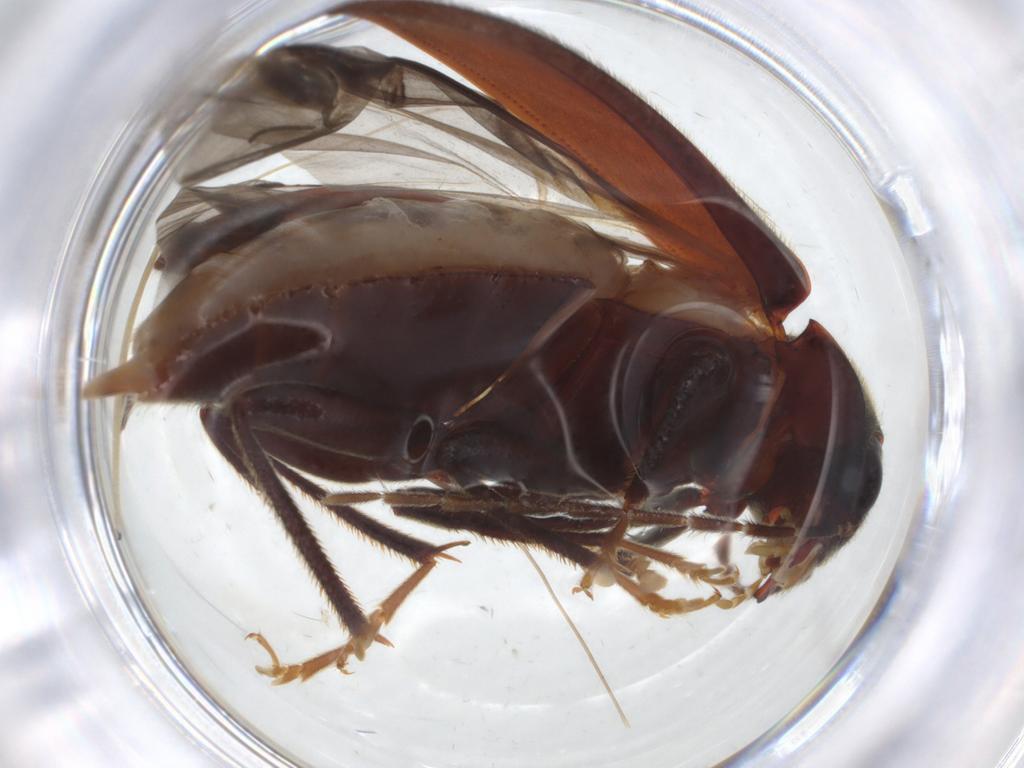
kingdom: Animalia
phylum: Arthropoda
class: Insecta
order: Coleoptera
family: Ptilodactylidae
